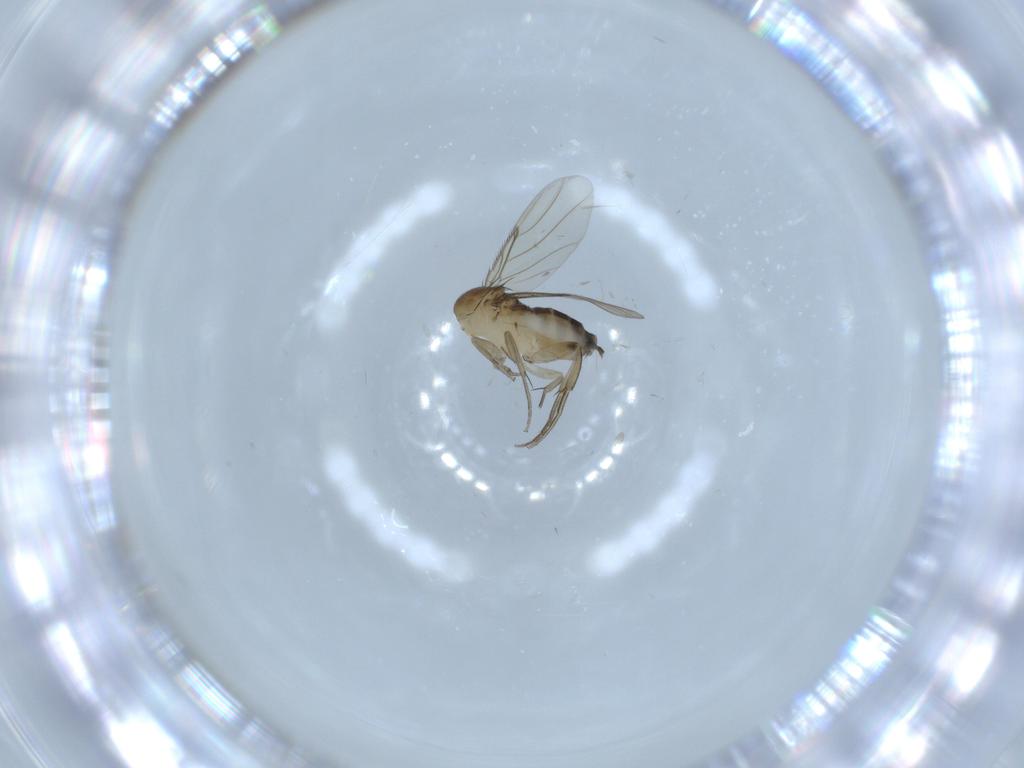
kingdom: Animalia
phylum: Arthropoda
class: Insecta
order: Diptera
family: Phoridae
